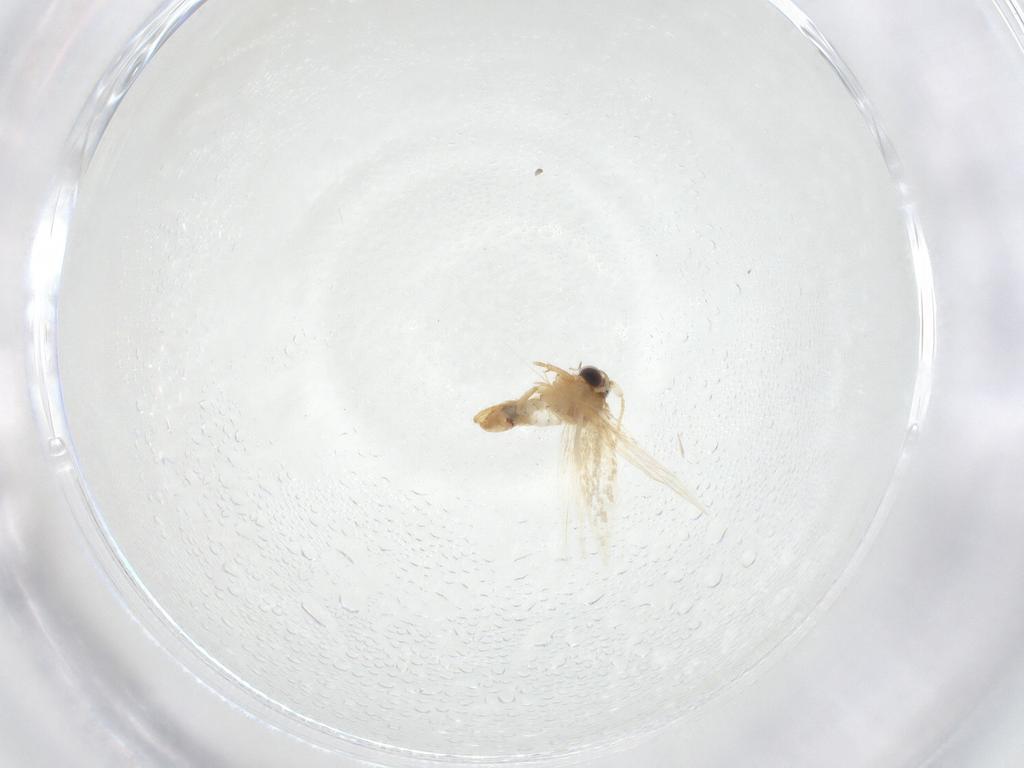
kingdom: Animalia
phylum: Arthropoda
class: Insecta
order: Lepidoptera
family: Nepticulidae
